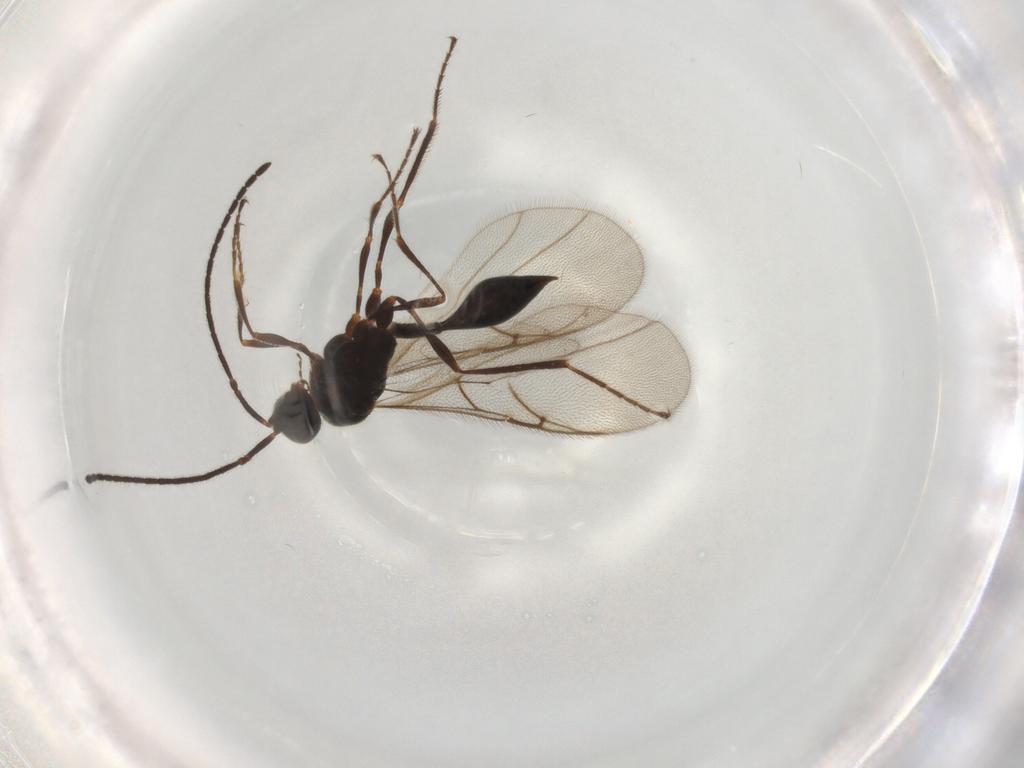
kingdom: Animalia
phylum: Arthropoda
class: Insecta
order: Hymenoptera
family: Diapriidae
